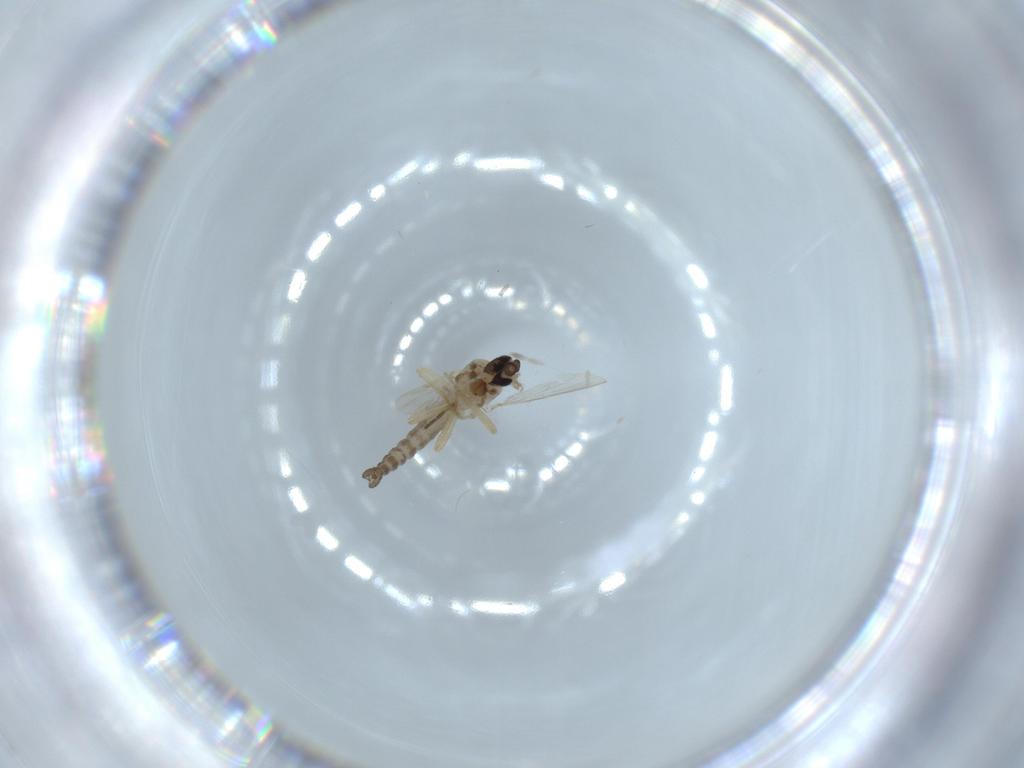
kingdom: Animalia
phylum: Arthropoda
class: Insecta
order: Diptera
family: Ceratopogonidae
